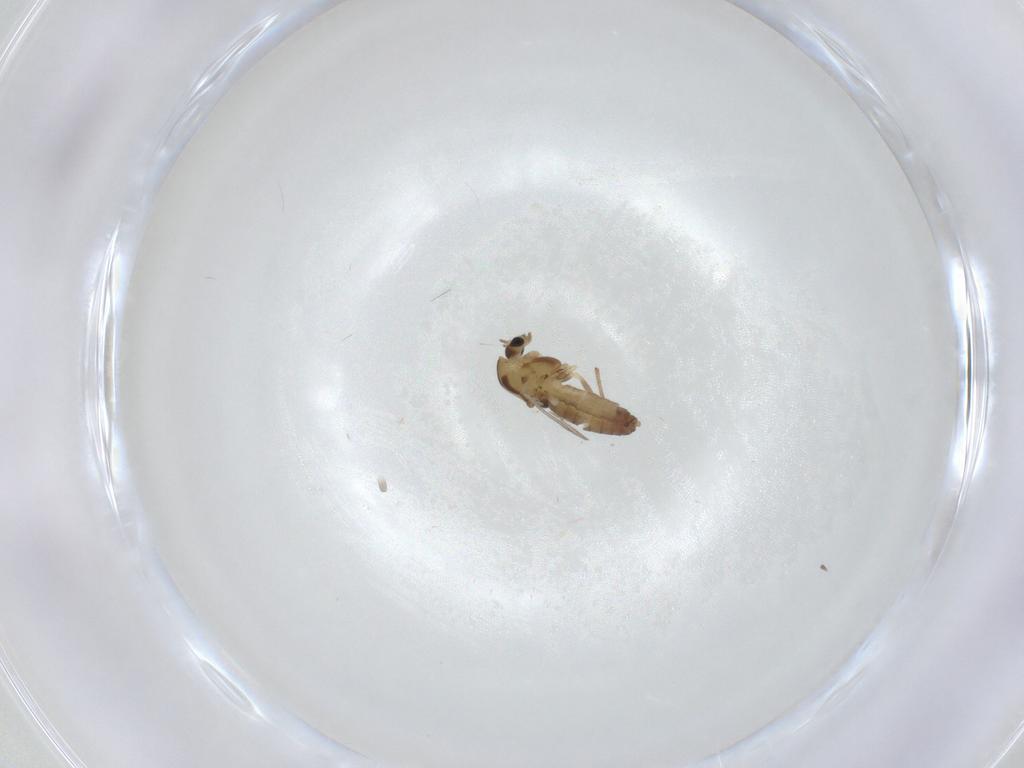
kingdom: Animalia
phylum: Arthropoda
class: Insecta
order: Diptera
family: Chironomidae
